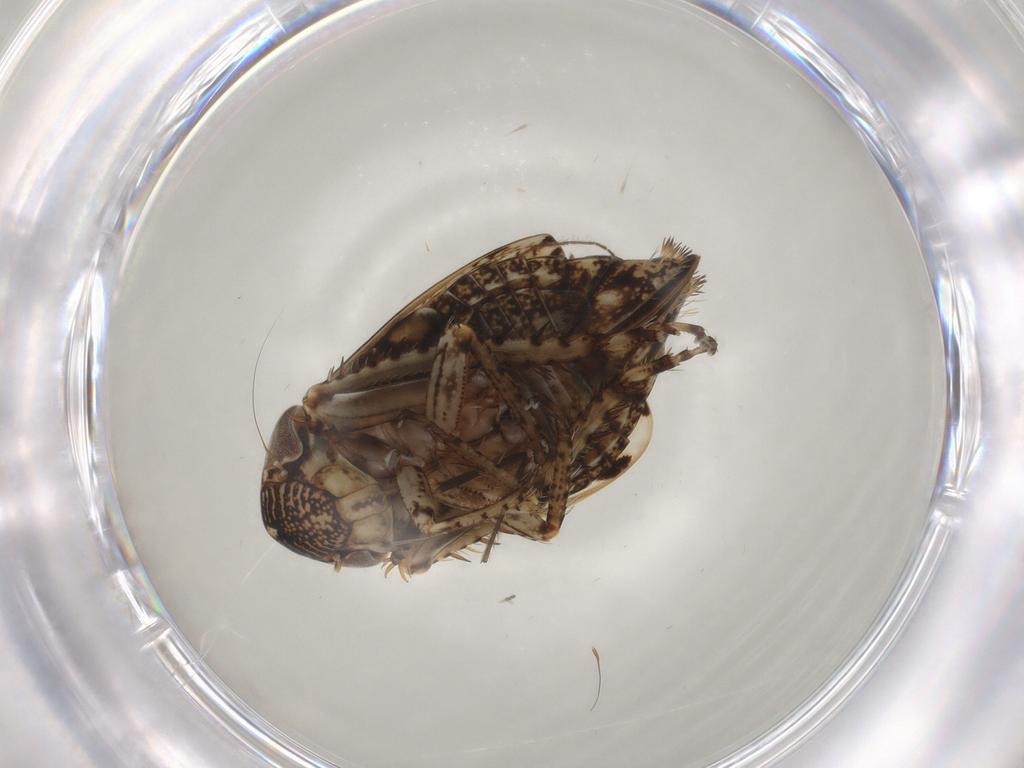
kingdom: Animalia
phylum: Arthropoda
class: Insecta
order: Hemiptera
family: Cicadellidae
